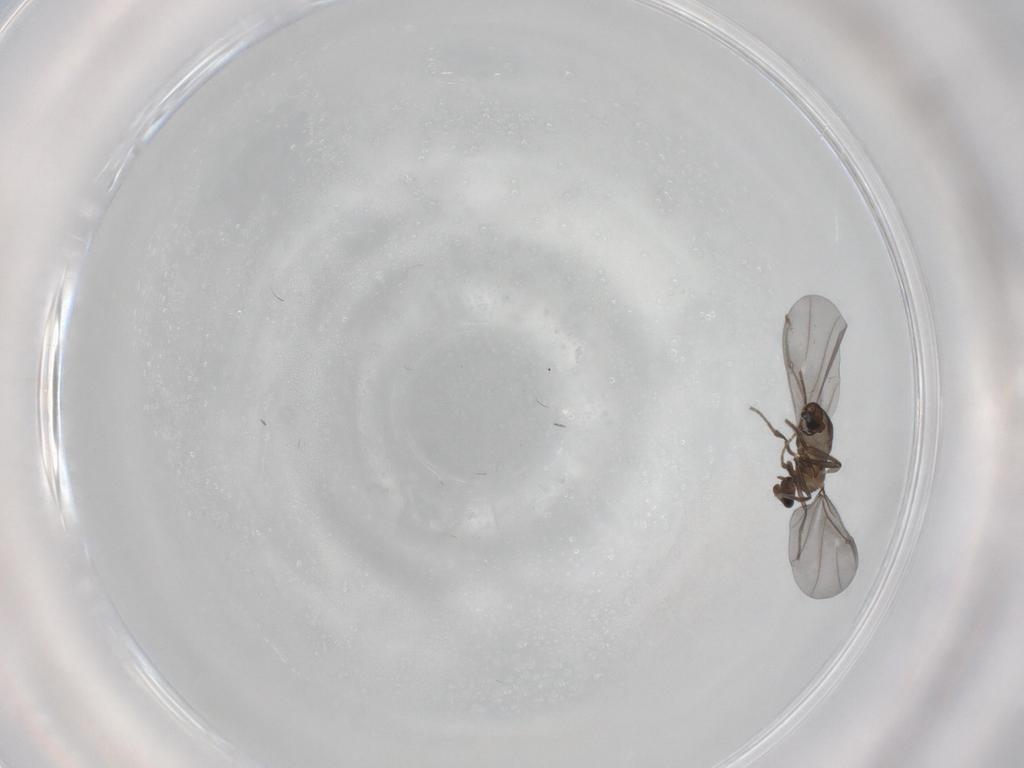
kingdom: Animalia
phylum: Arthropoda
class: Insecta
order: Diptera
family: Phoridae
